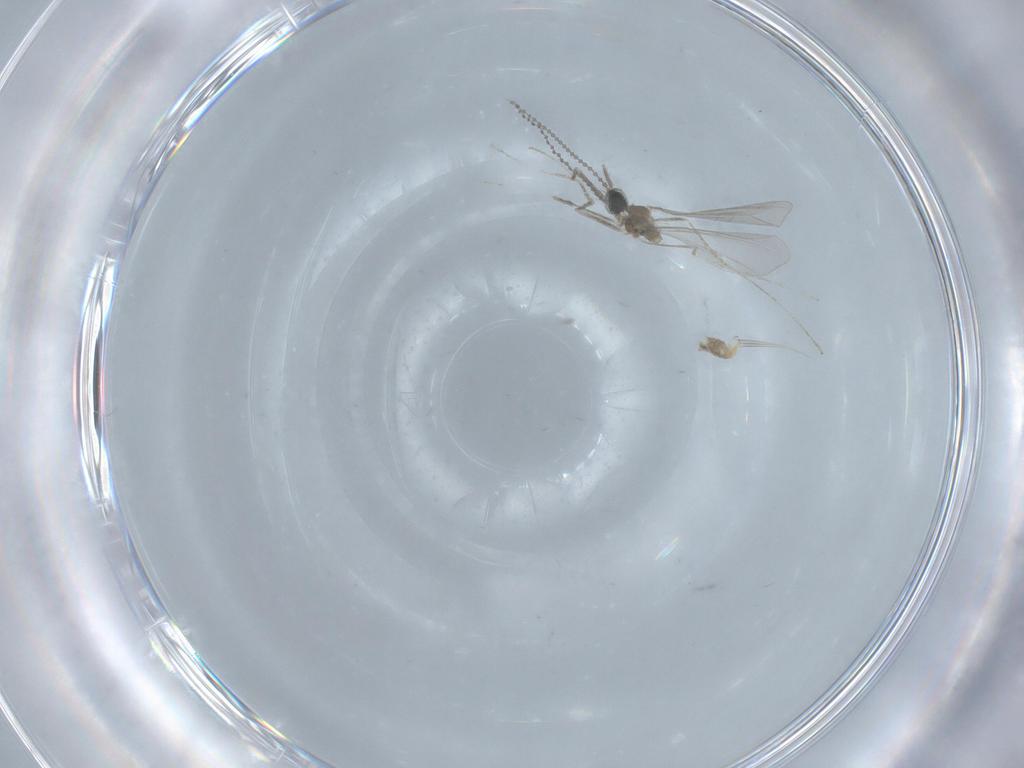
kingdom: Animalia
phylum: Arthropoda
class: Insecta
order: Diptera
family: Cecidomyiidae
